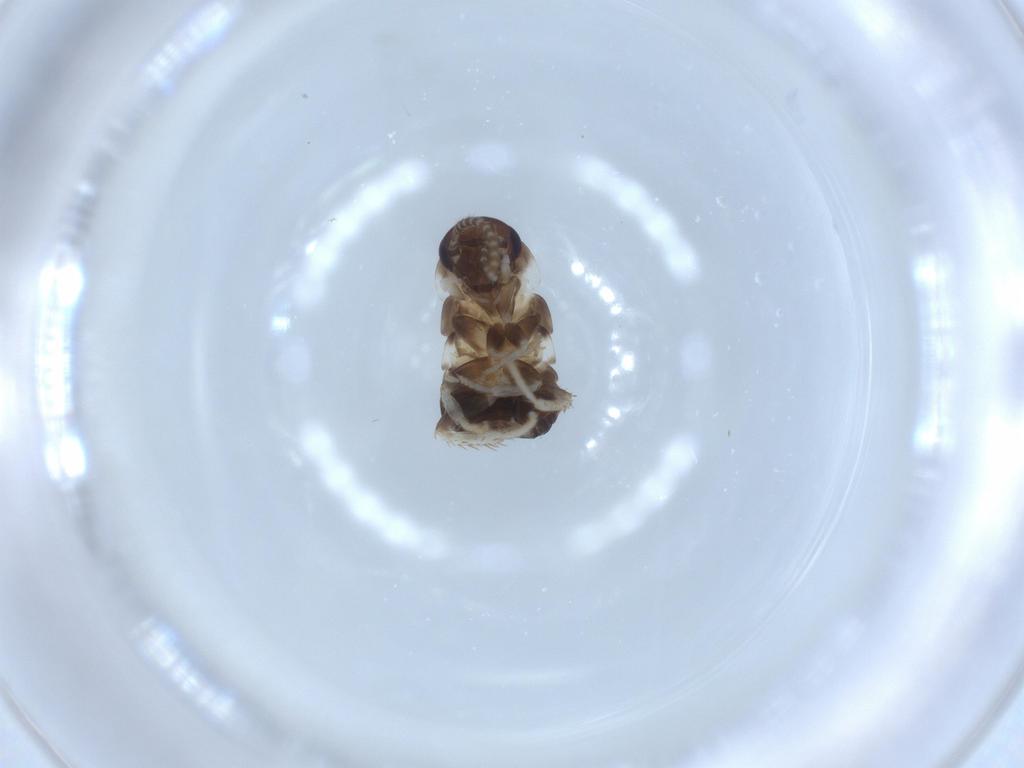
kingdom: Animalia
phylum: Arthropoda
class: Insecta
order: Blattodea
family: Ectobiidae
